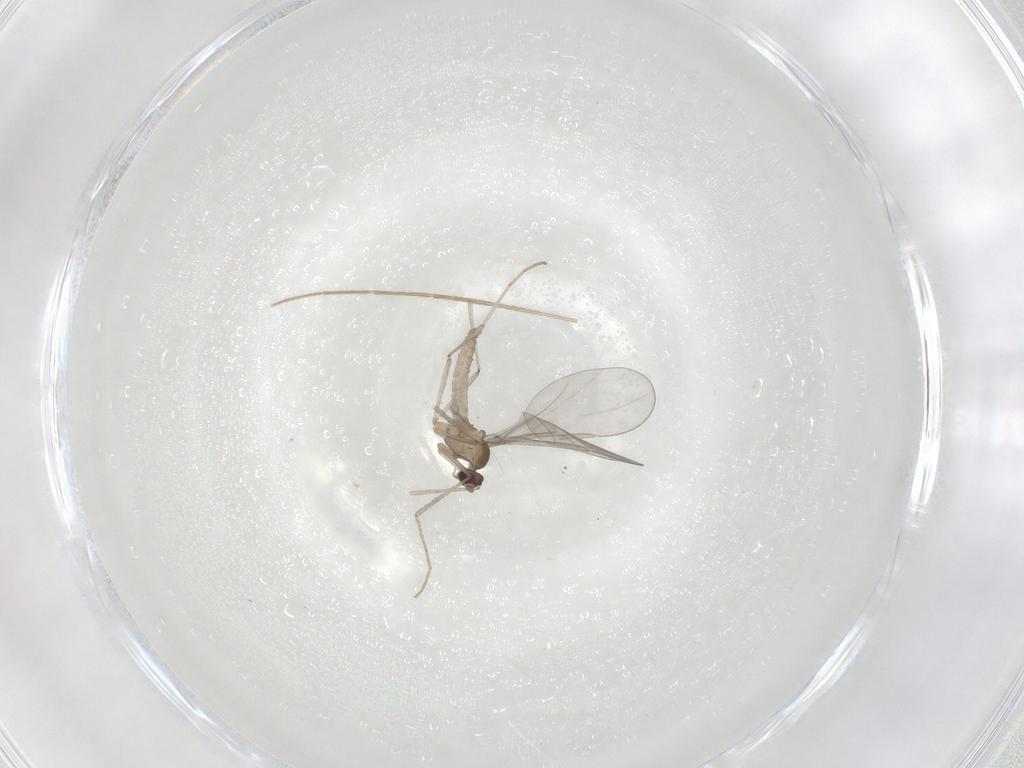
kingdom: Animalia
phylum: Arthropoda
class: Insecta
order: Diptera
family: Cecidomyiidae
